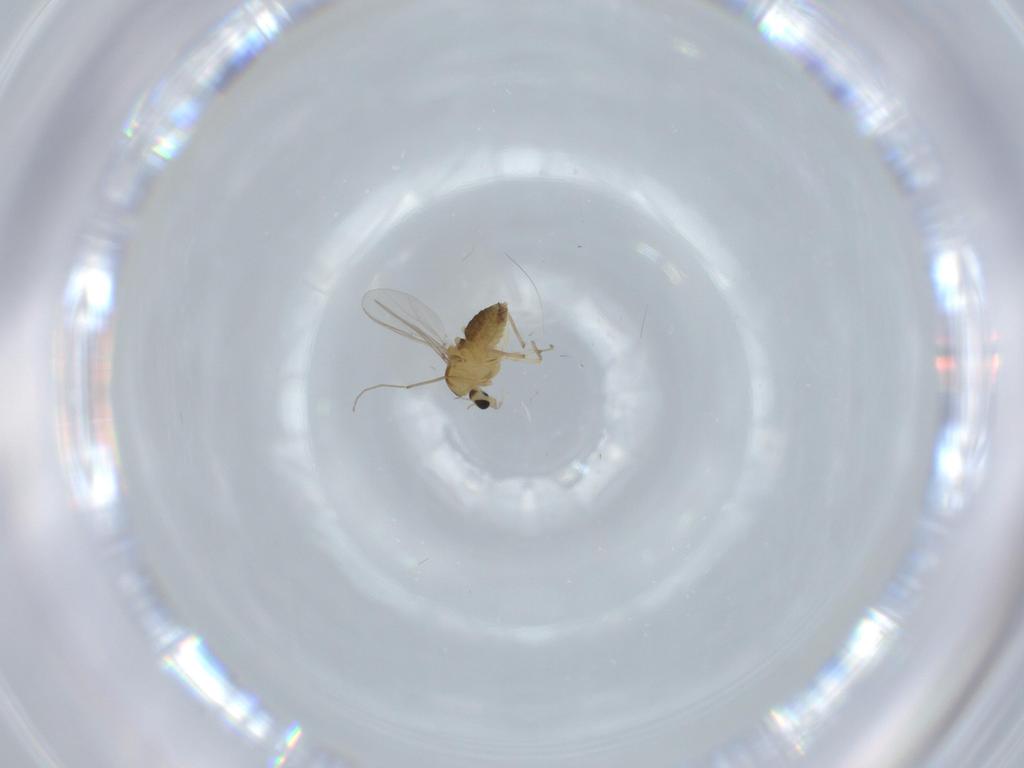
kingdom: Animalia
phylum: Arthropoda
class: Insecta
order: Diptera
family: Chironomidae
